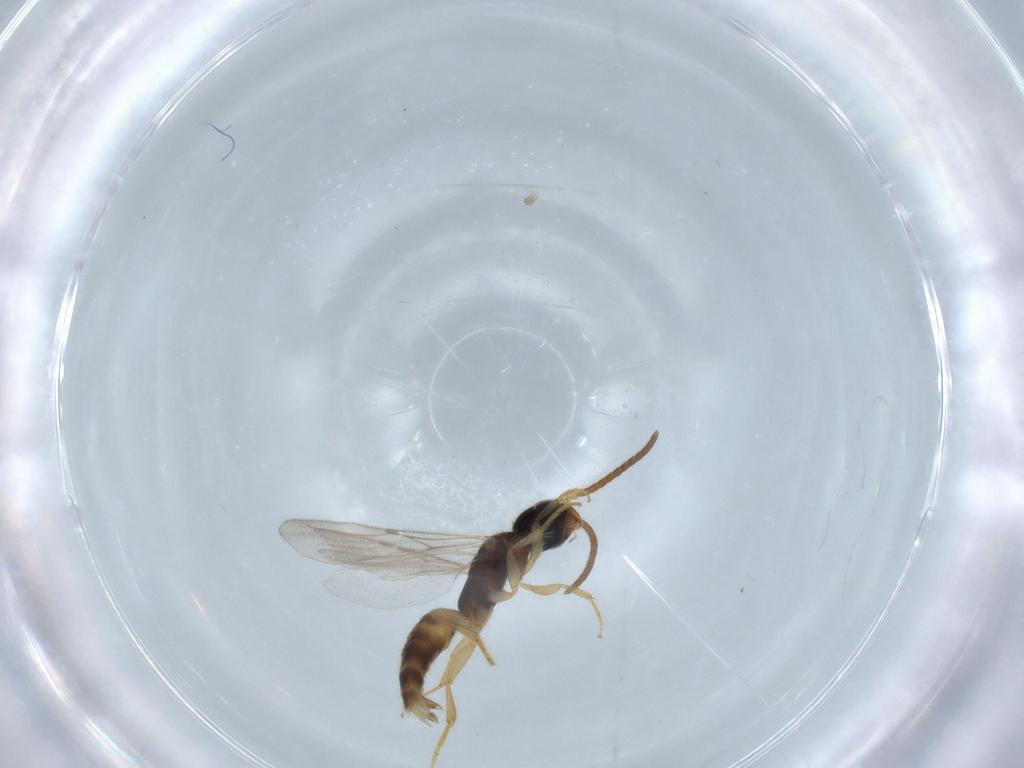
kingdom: Animalia
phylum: Arthropoda
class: Insecta
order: Hymenoptera
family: Bethylidae
